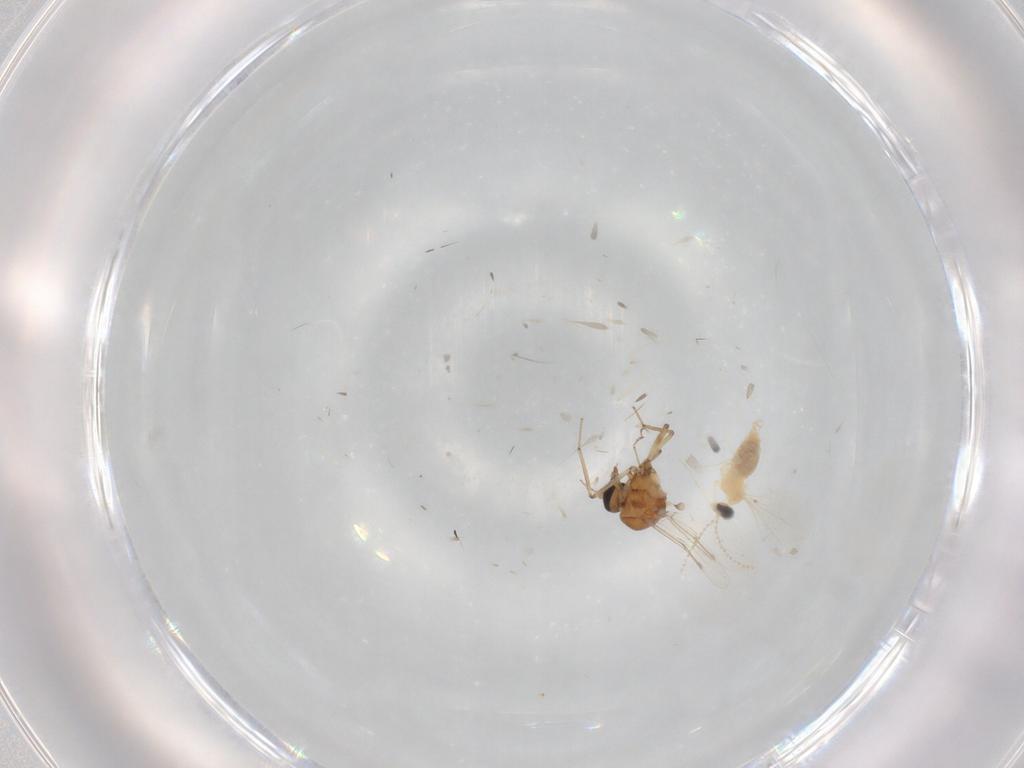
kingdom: Animalia
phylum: Arthropoda
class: Insecta
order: Diptera
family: Cecidomyiidae
